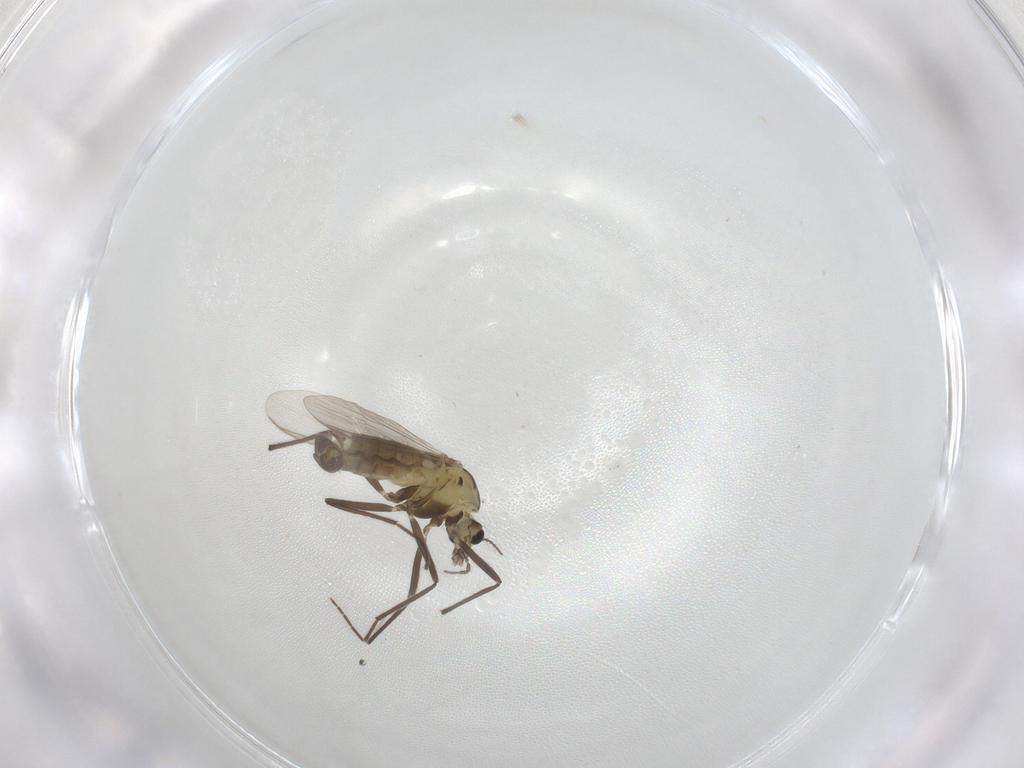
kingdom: Animalia
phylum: Arthropoda
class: Insecta
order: Diptera
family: Chironomidae
